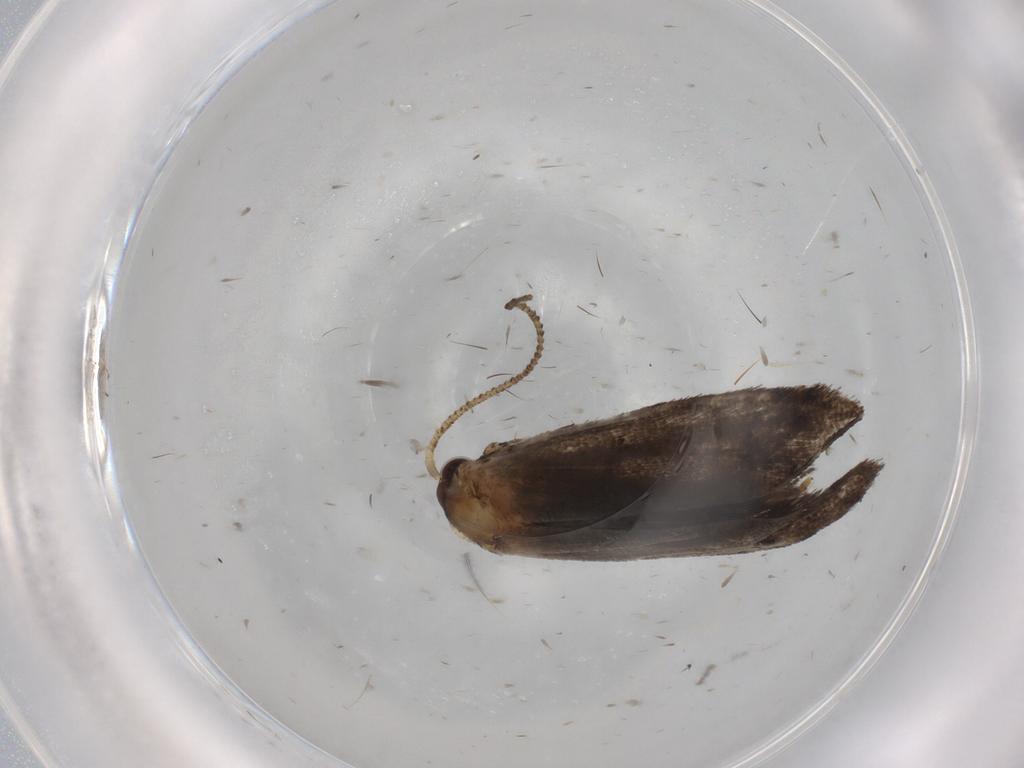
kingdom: Animalia
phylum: Arthropoda
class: Insecta
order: Lepidoptera
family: Tineidae
